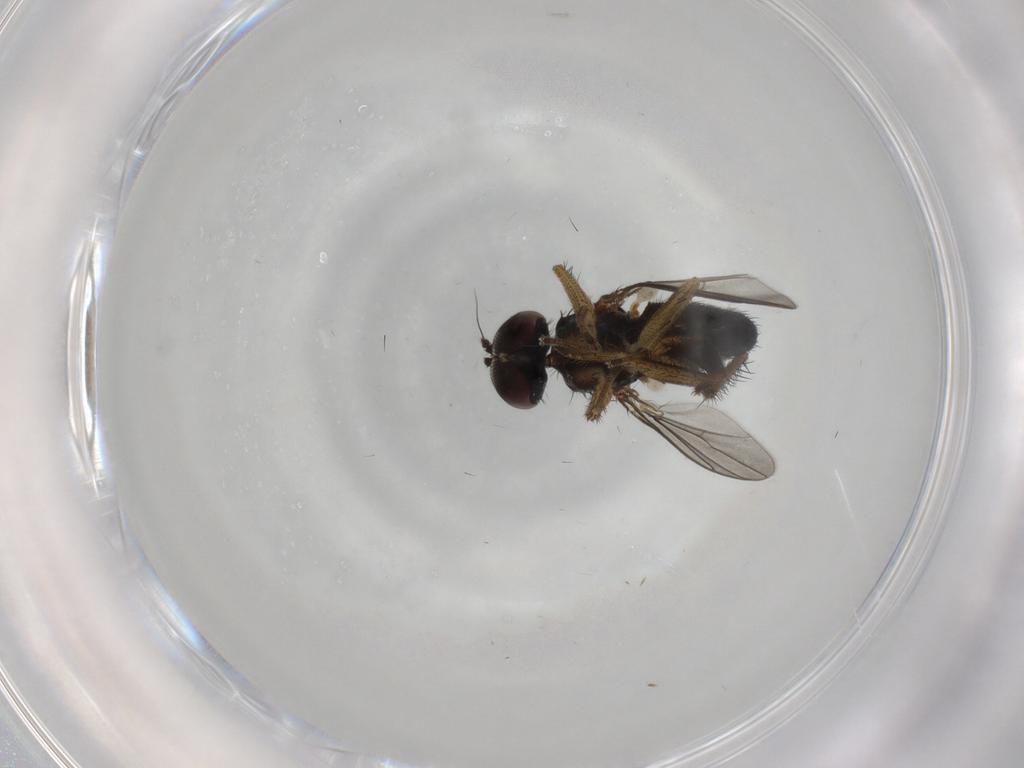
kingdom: Animalia
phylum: Arthropoda
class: Insecta
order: Diptera
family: Dolichopodidae
